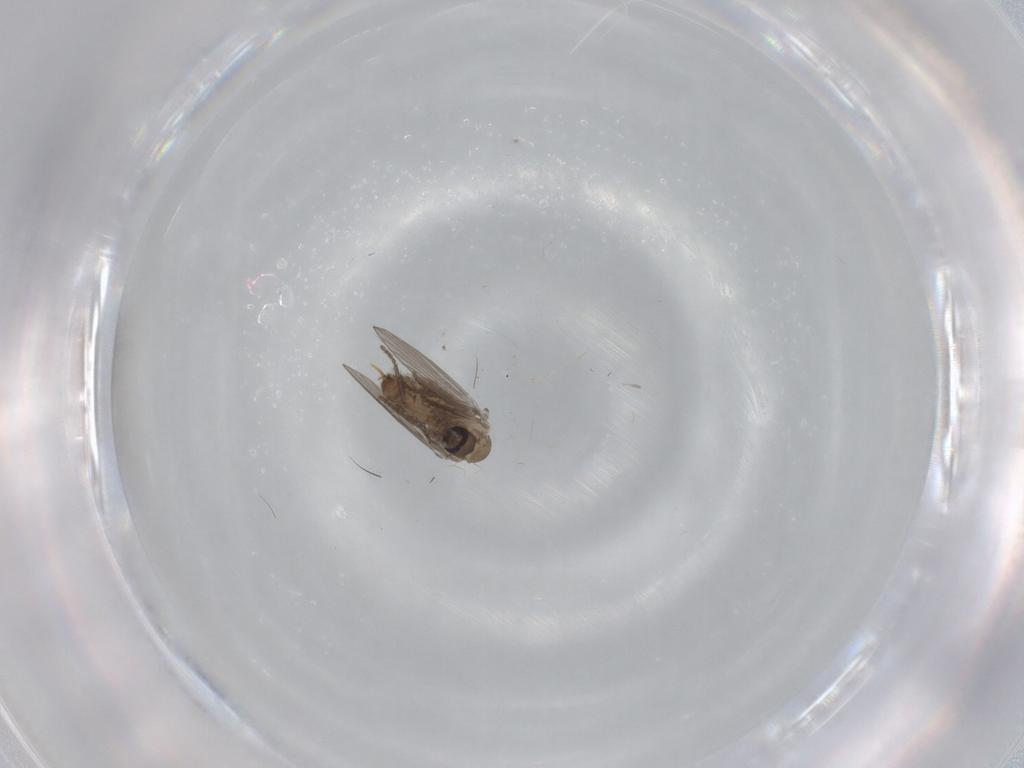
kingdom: Animalia
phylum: Arthropoda
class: Insecta
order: Diptera
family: Psychodidae
